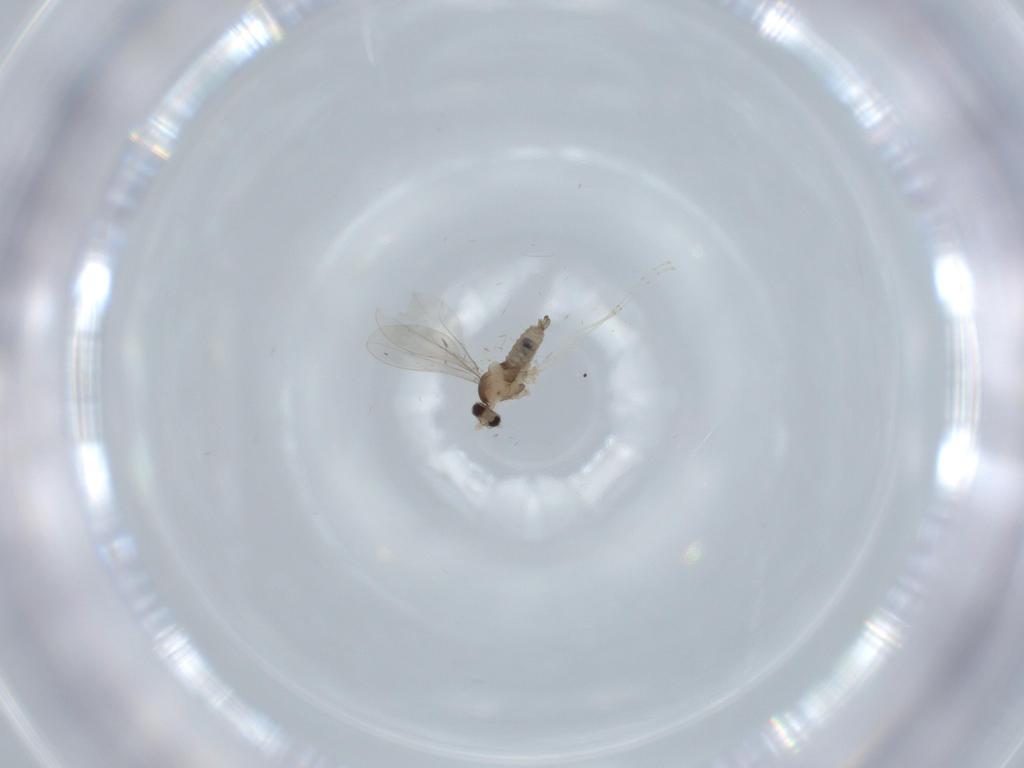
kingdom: Animalia
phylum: Arthropoda
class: Insecta
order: Diptera
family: Cecidomyiidae
